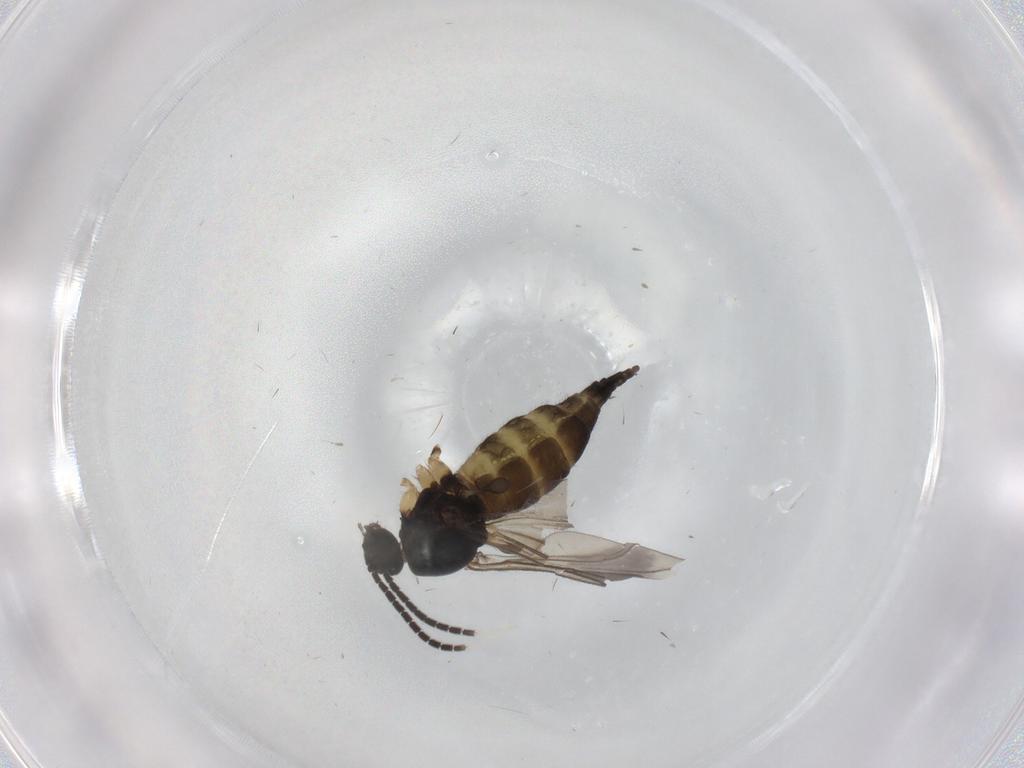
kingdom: Animalia
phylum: Arthropoda
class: Insecta
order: Diptera
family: Sciaridae
